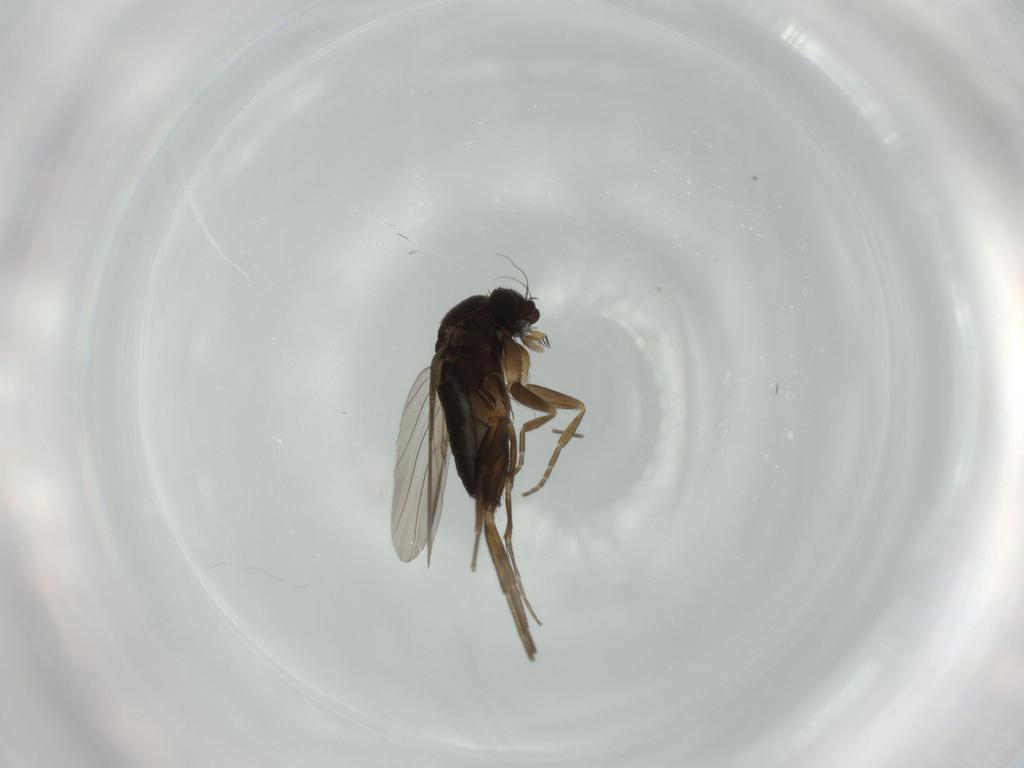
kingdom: Animalia
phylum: Arthropoda
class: Insecta
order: Diptera
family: Phoridae
